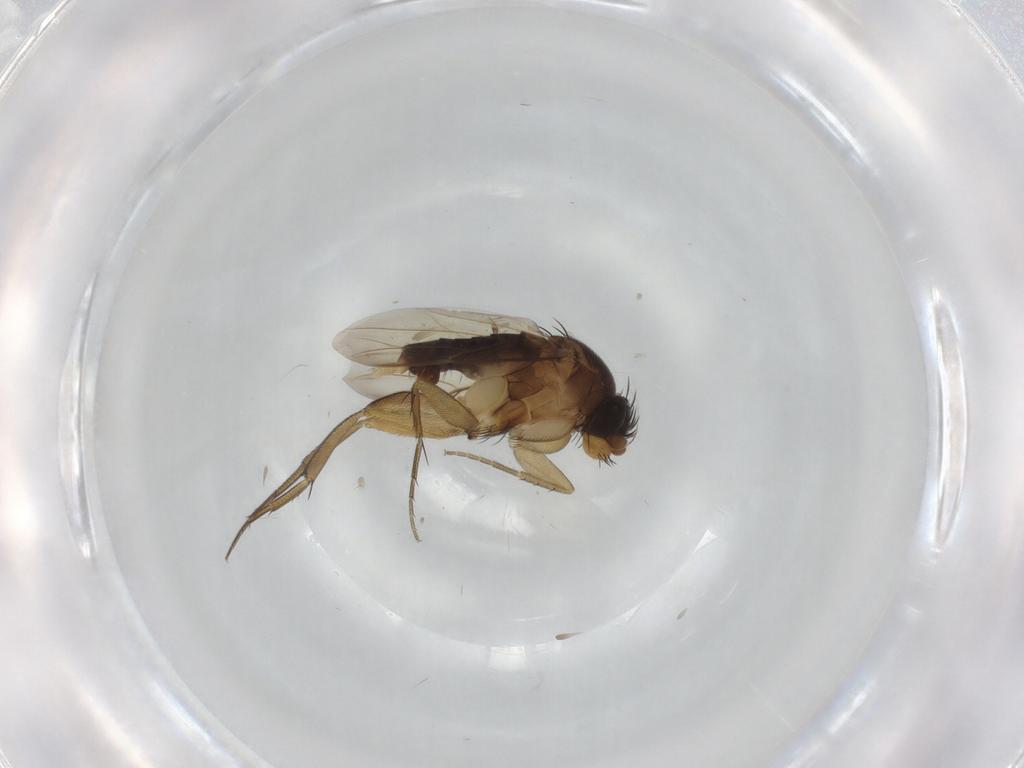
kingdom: Animalia
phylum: Arthropoda
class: Insecta
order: Diptera
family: Phoridae
